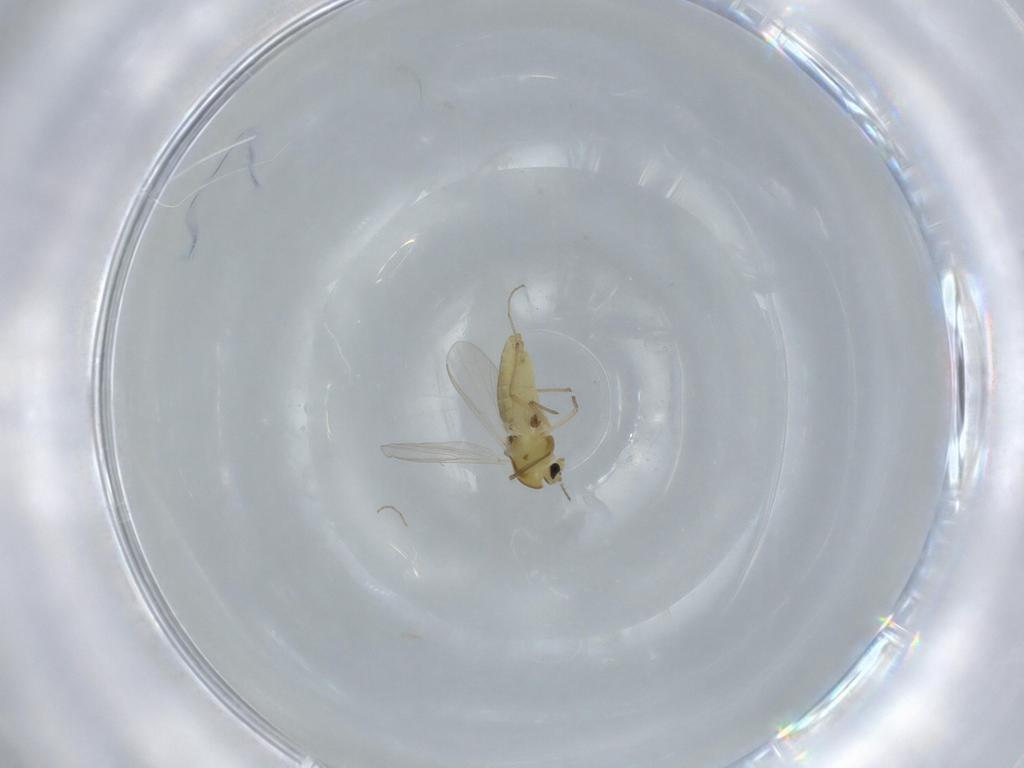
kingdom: Animalia
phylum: Arthropoda
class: Insecta
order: Diptera
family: Chironomidae
